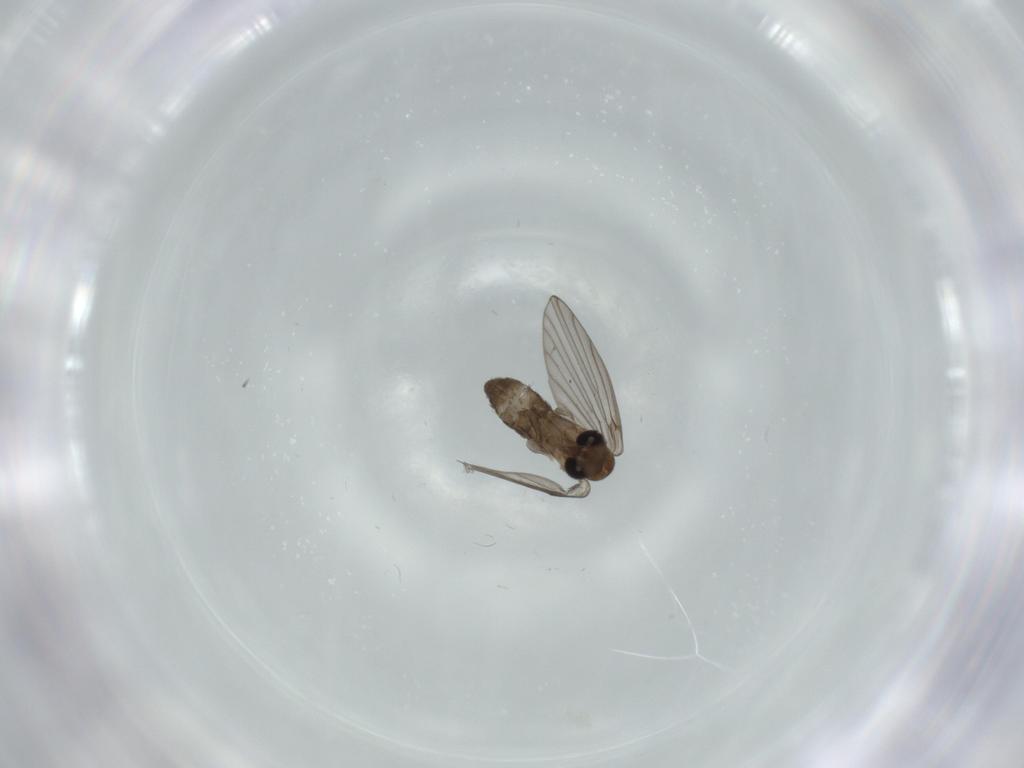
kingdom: Animalia
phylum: Arthropoda
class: Insecta
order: Diptera
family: Psychodidae
